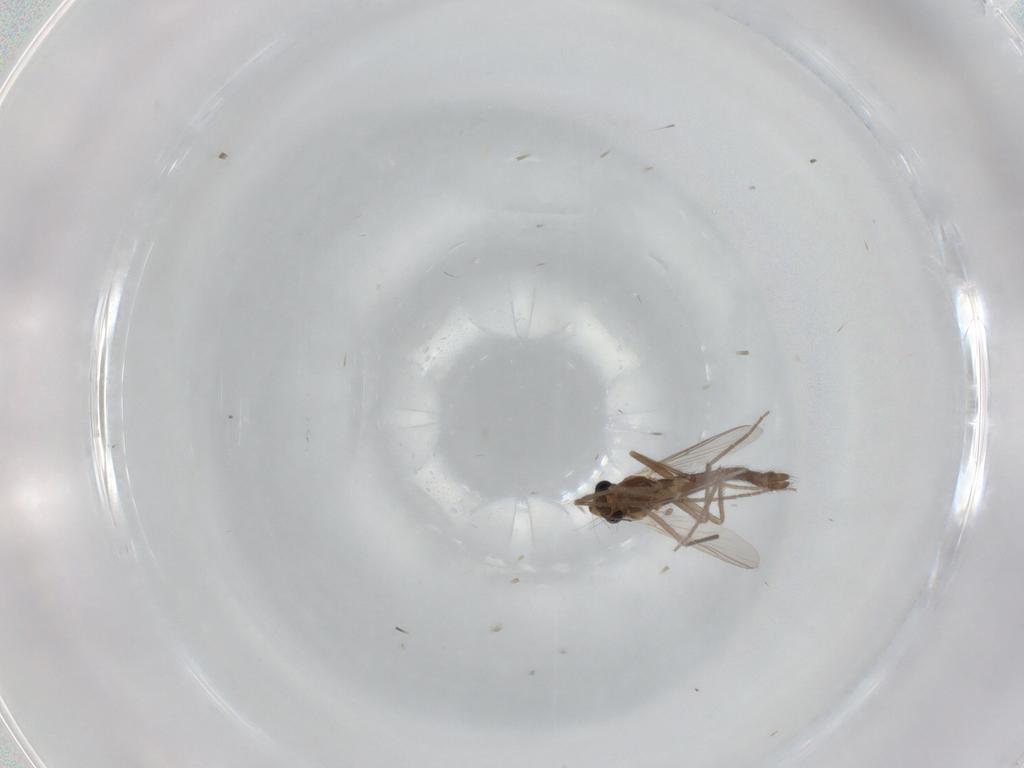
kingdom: Animalia
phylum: Arthropoda
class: Insecta
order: Diptera
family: Chironomidae
